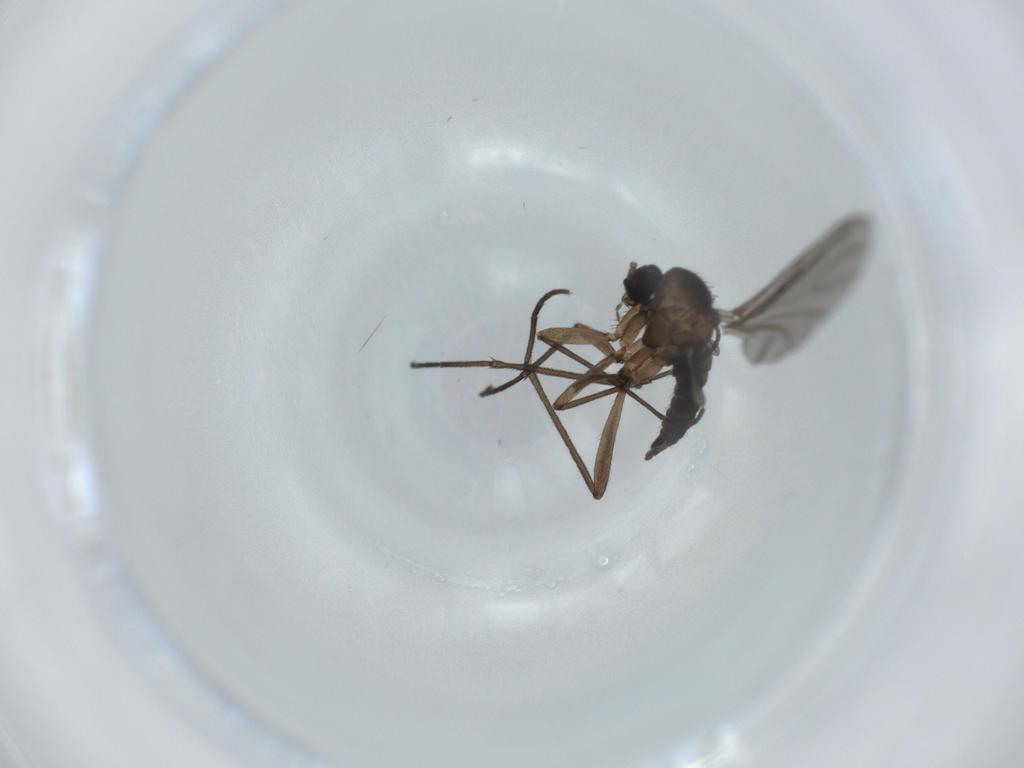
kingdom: Animalia
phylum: Arthropoda
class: Insecta
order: Diptera
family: Sciaridae
